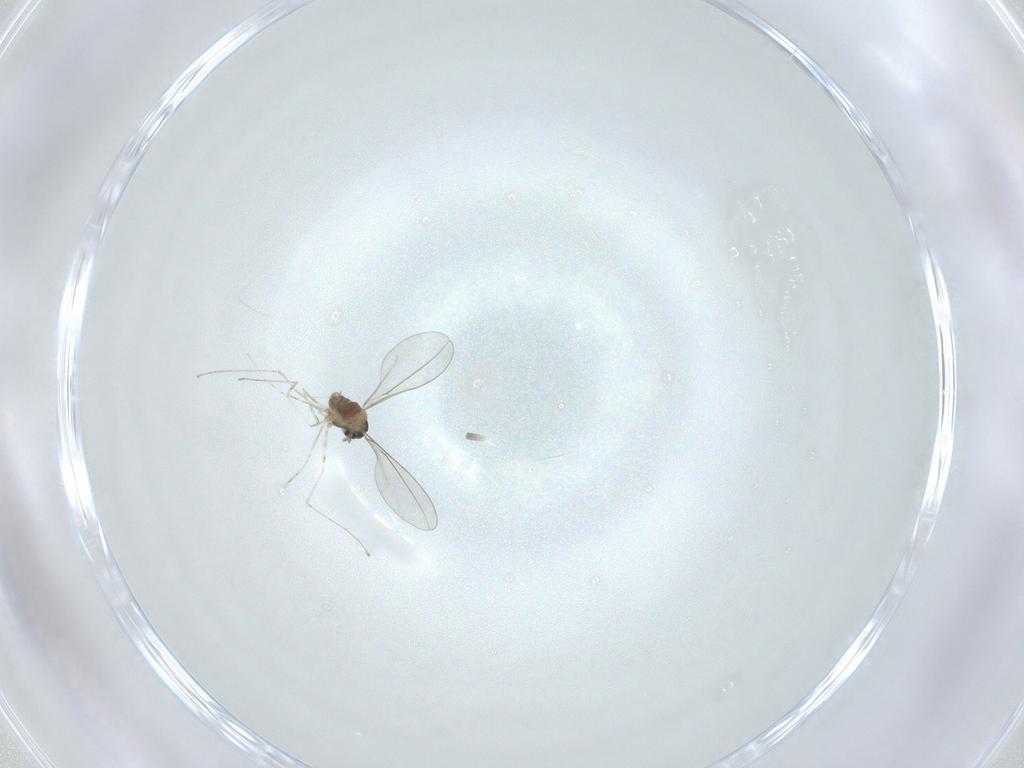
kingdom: Animalia
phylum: Arthropoda
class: Insecta
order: Diptera
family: Cecidomyiidae
